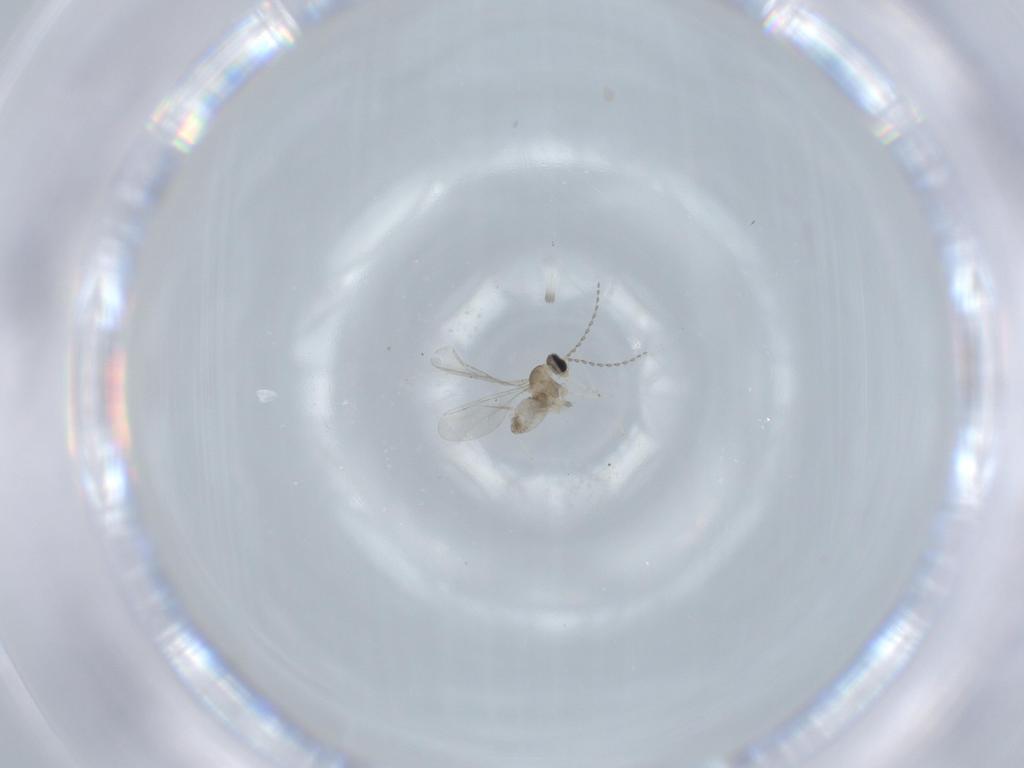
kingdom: Animalia
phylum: Arthropoda
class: Insecta
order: Diptera
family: Cecidomyiidae
